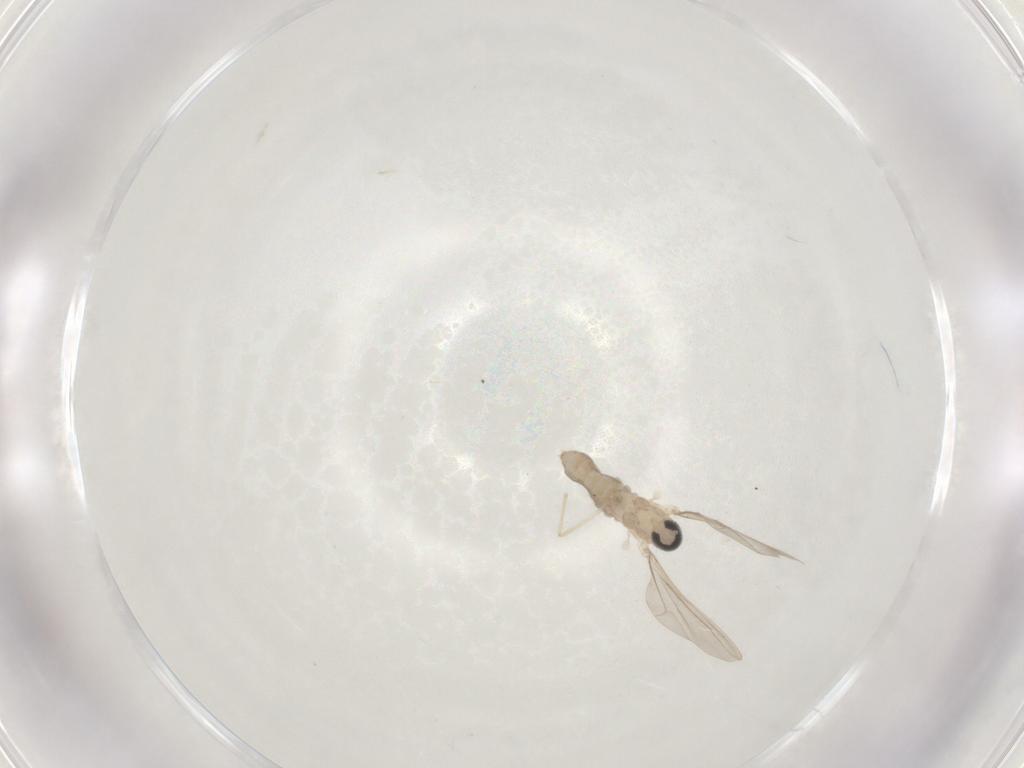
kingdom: Animalia
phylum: Arthropoda
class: Insecta
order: Diptera
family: Cecidomyiidae
